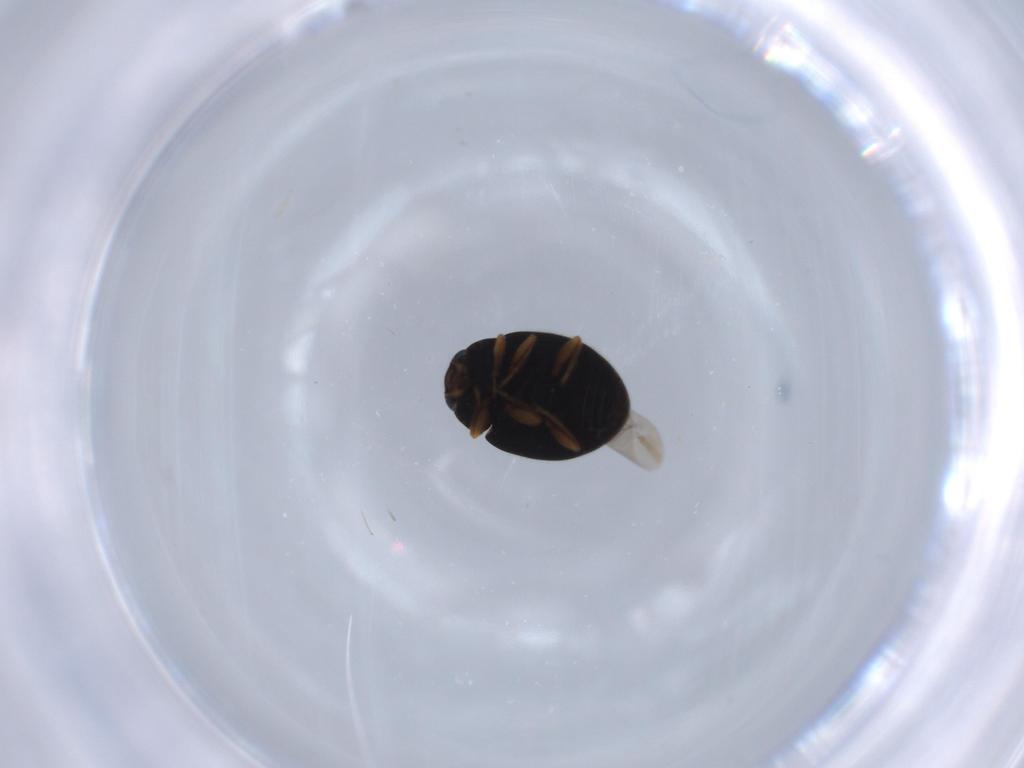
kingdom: Animalia
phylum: Arthropoda
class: Insecta
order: Coleoptera
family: Coccinellidae
